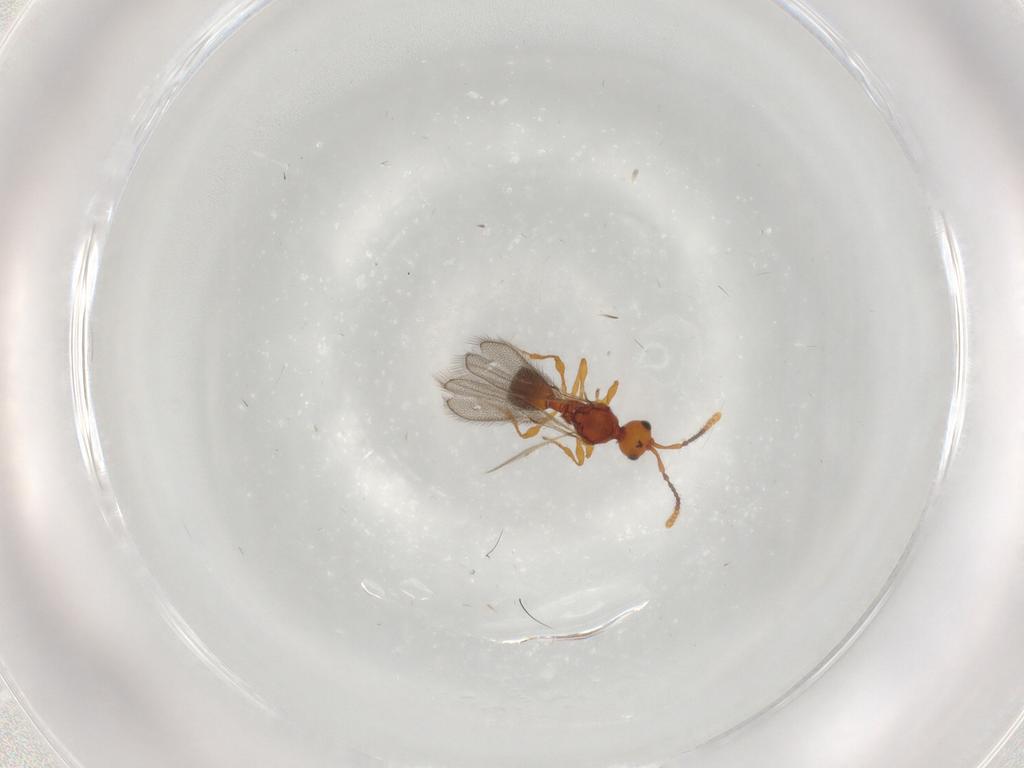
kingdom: Animalia
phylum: Arthropoda
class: Insecta
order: Hymenoptera
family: Diapriidae
